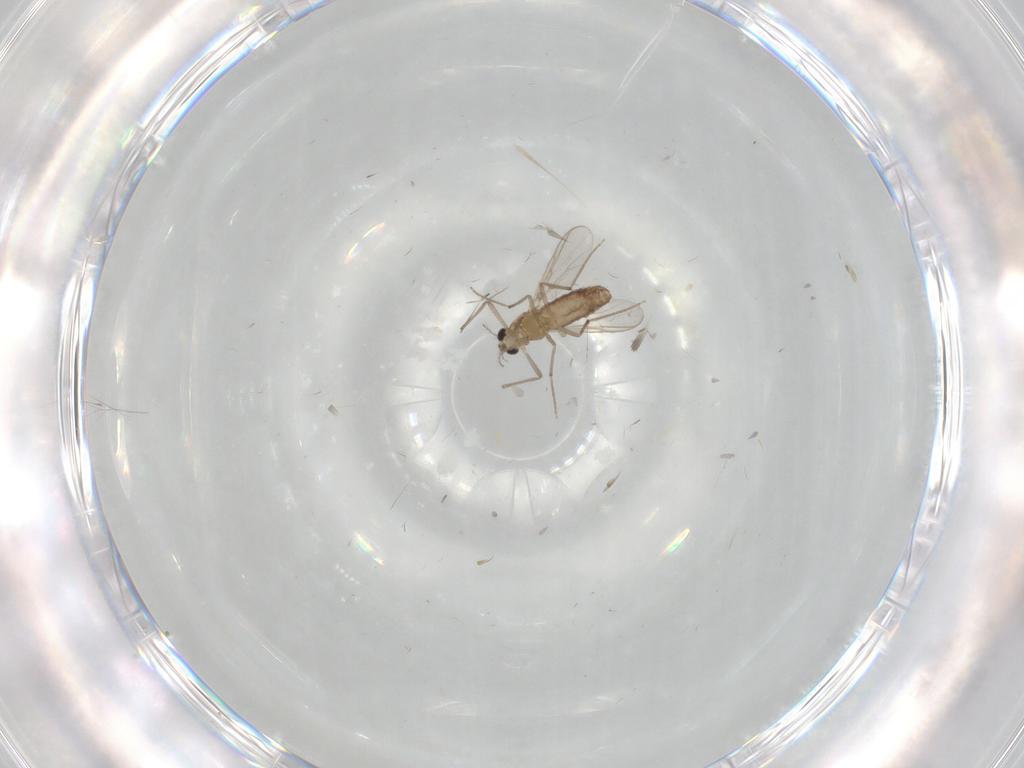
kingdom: Animalia
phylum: Arthropoda
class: Insecta
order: Diptera
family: Chironomidae
